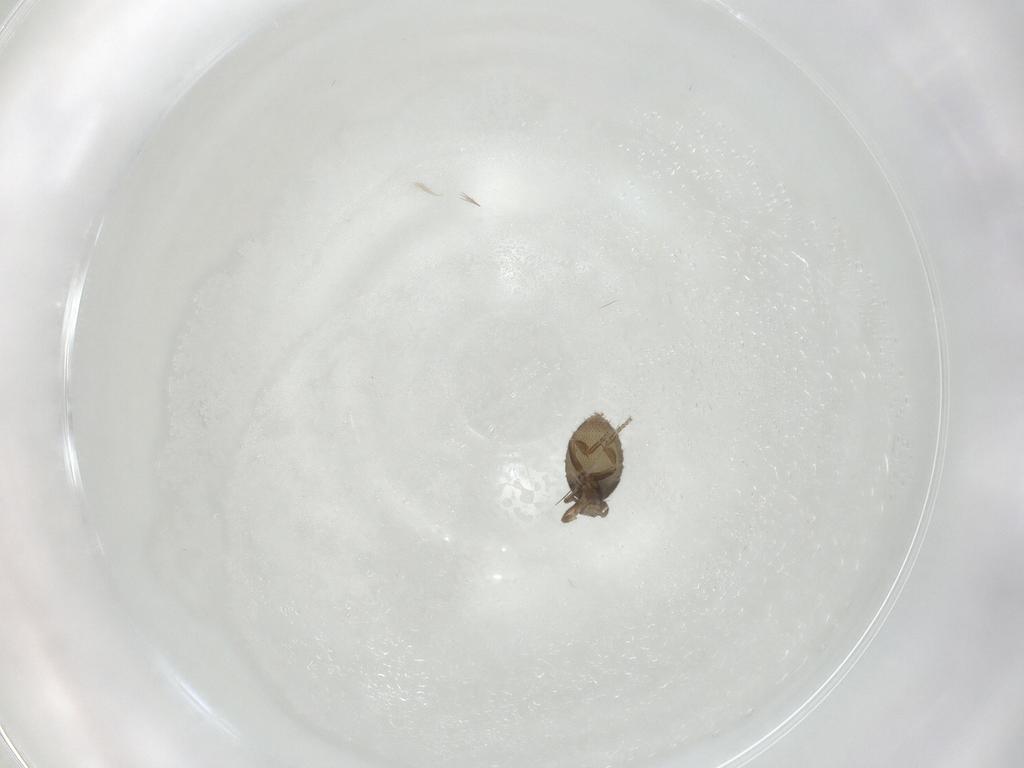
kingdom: Animalia
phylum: Arthropoda
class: Insecta
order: Diptera
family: Phoridae
